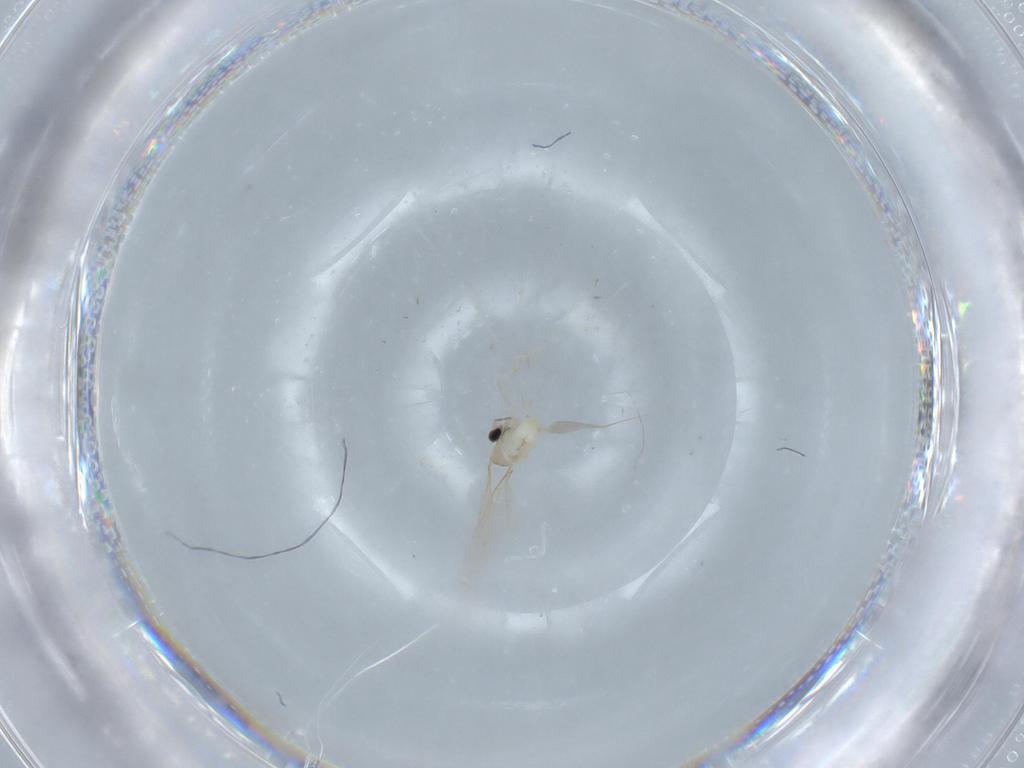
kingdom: Animalia
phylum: Arthropoda
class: Insecta
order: Diptera
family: Cecidomyiidae
